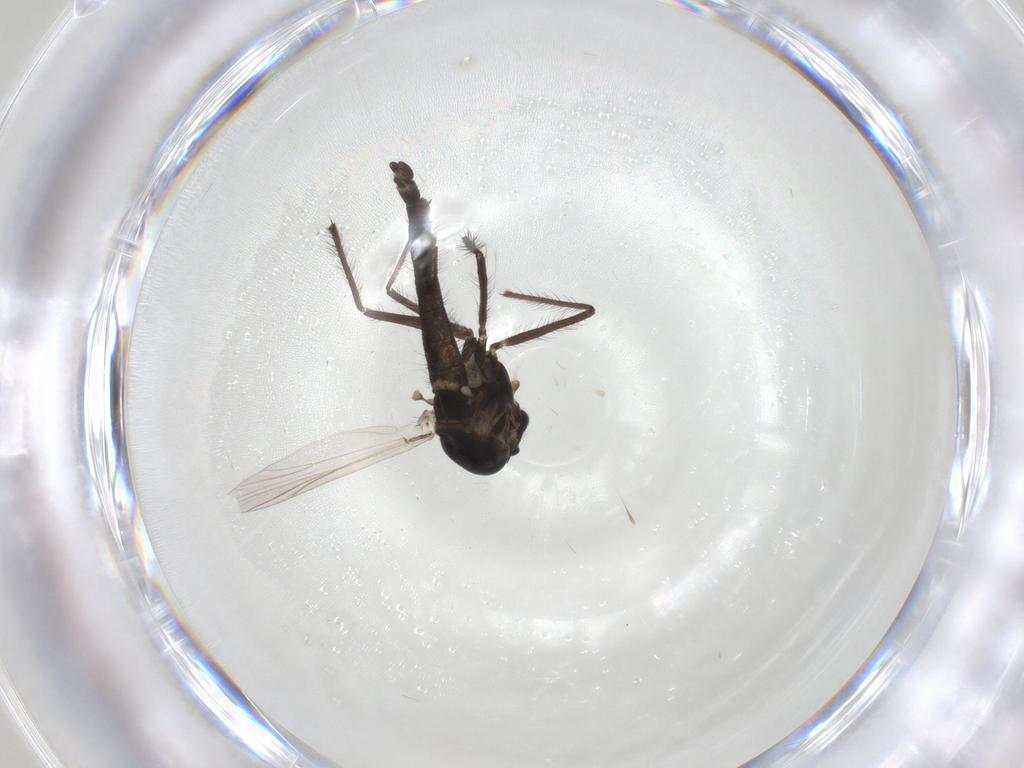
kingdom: Animalia
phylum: Arthropoda
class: Insecta
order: Diptera
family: Chironomidae
